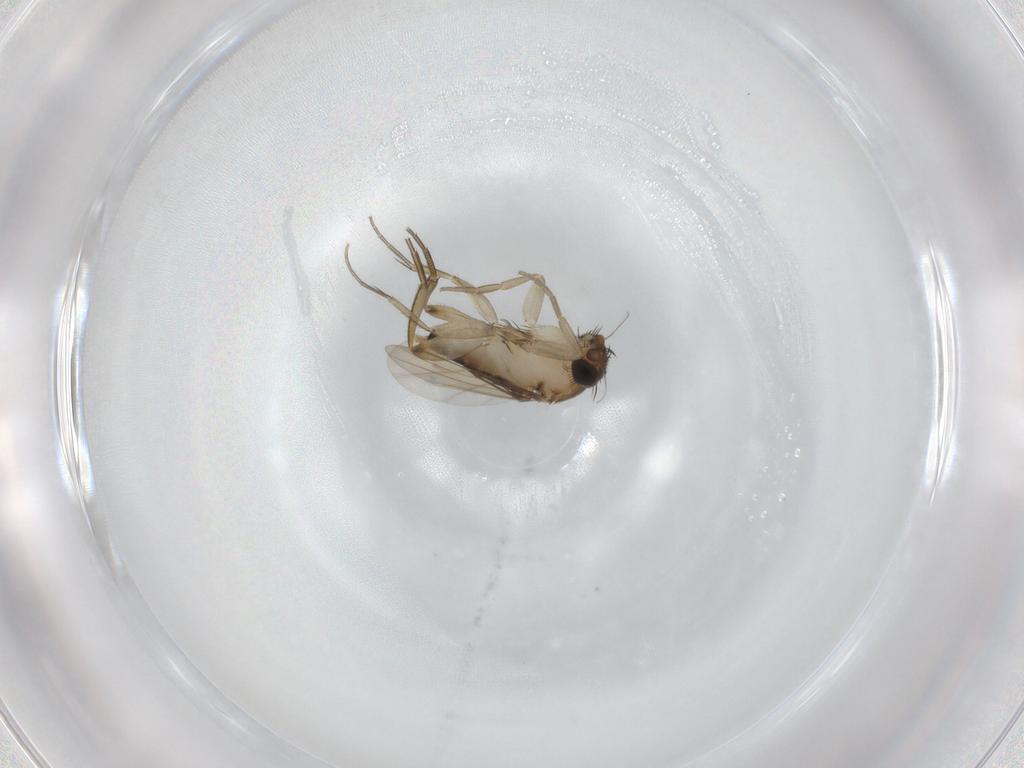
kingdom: Animalia
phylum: Arthropoda
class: Insecta
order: Diptera
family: Phoridae
